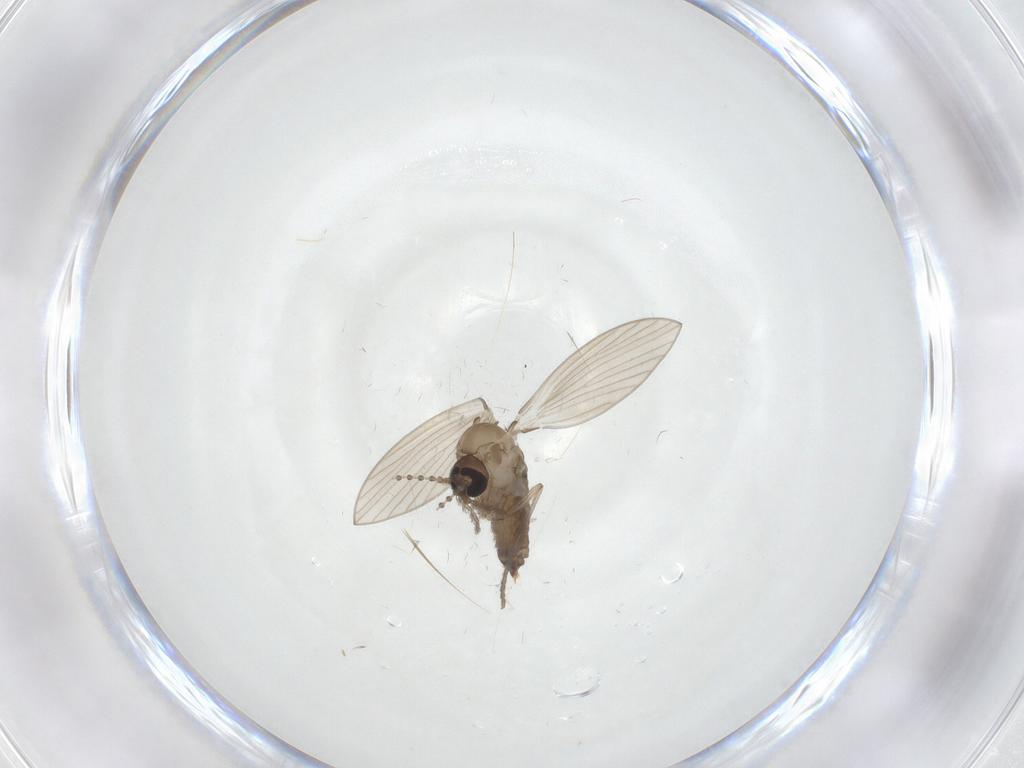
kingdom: Animalia
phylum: Arthropoda
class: Insecta
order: Diptera
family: Psychodidae
